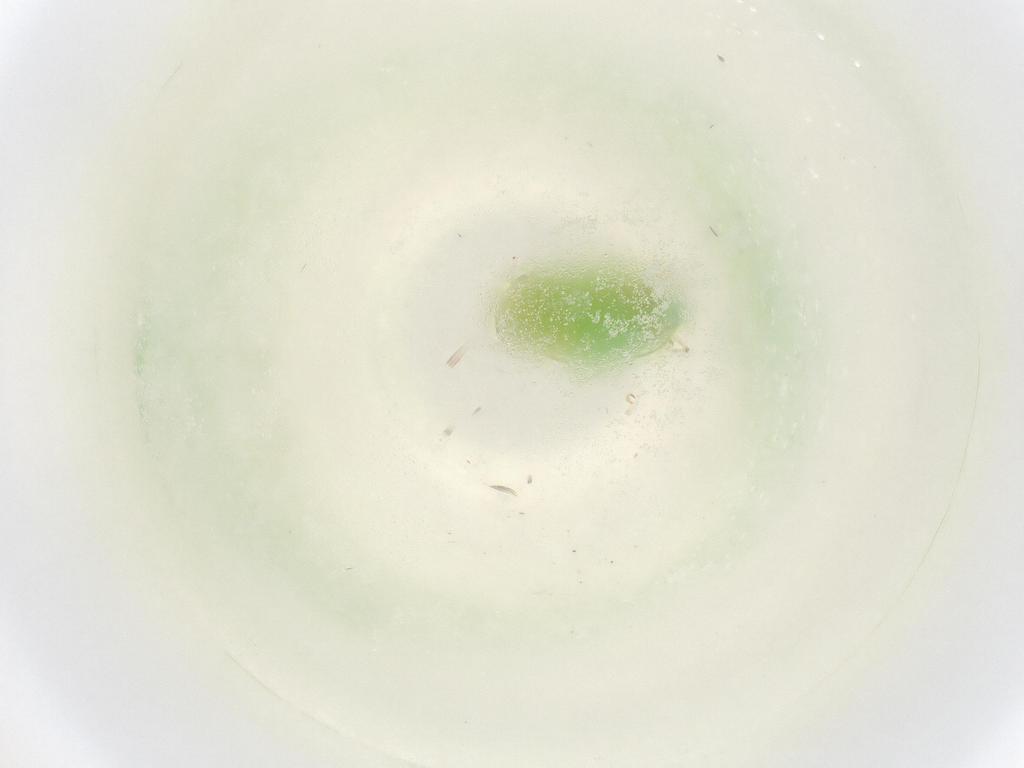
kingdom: Animalia
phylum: Arthropoda
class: Insecta
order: Hemiptera
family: Cicadellidae
